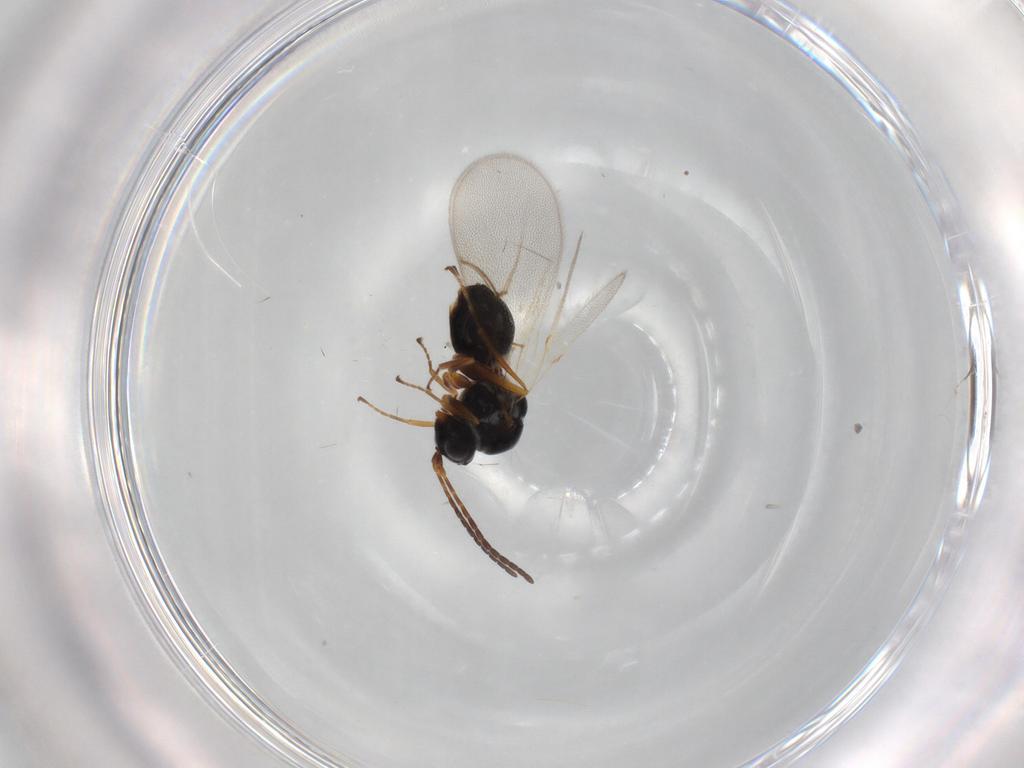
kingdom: Animalia
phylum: Arthropoda
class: Insecta
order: Hymenoptera
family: Figitidae
